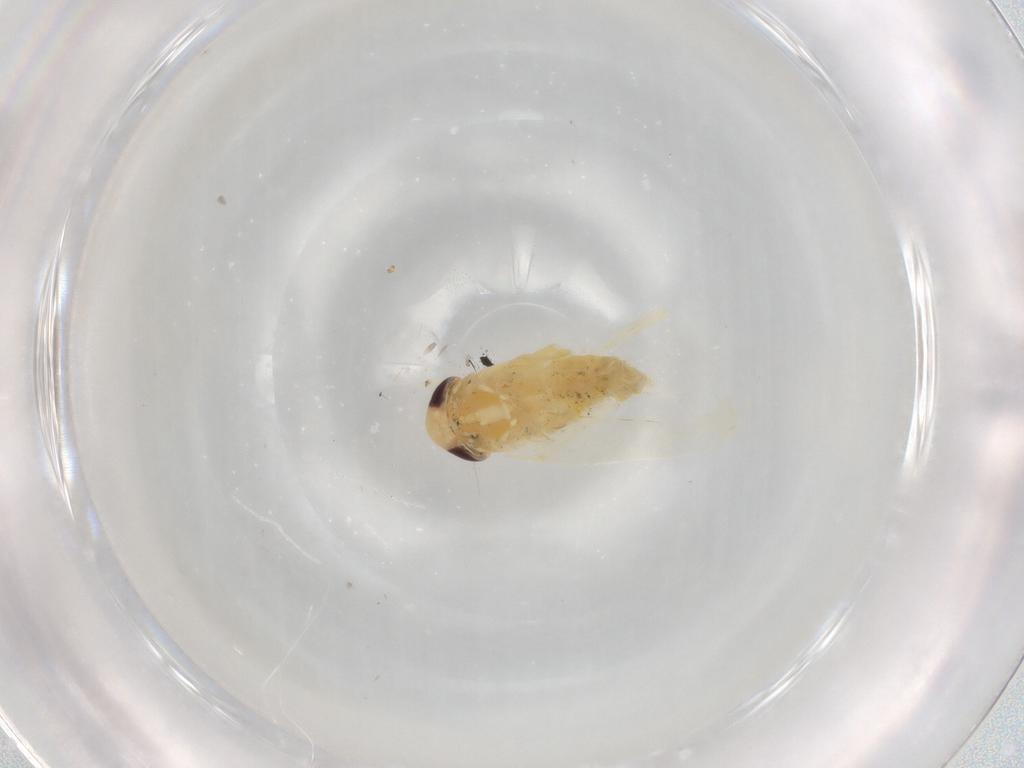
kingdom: Animalia
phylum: Arthropoda
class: Insecta
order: Hemiptera
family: Cicadellidae
